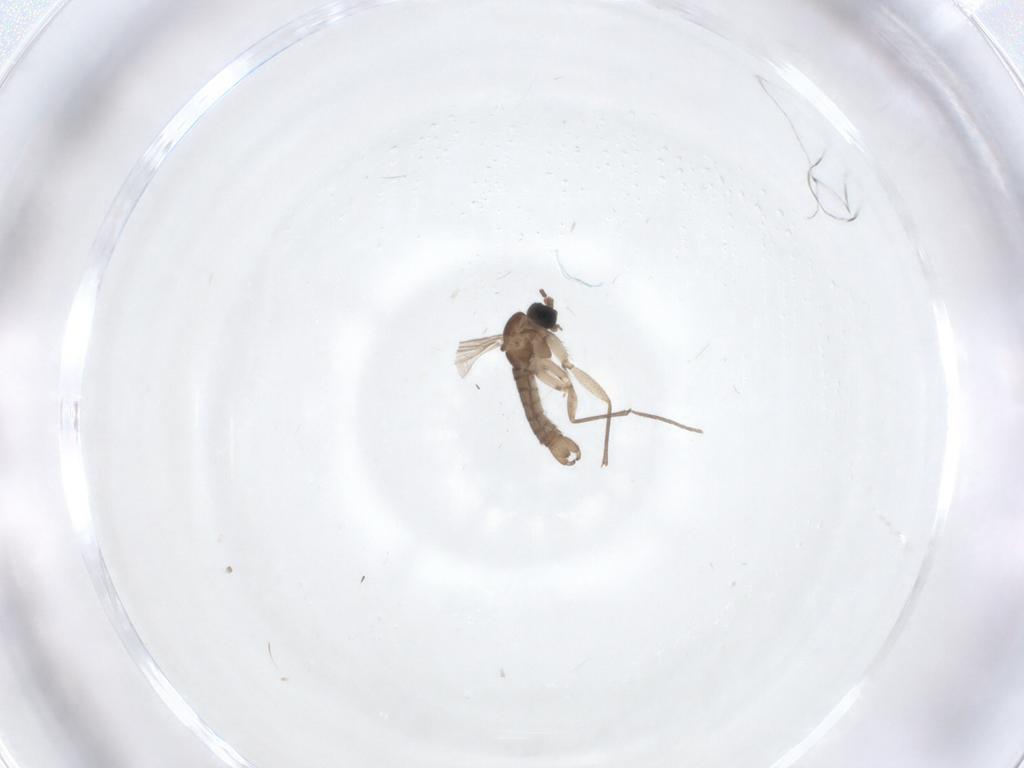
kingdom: Animalia
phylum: Arthropoda
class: Insecta
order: Diptera
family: Sciaridae
